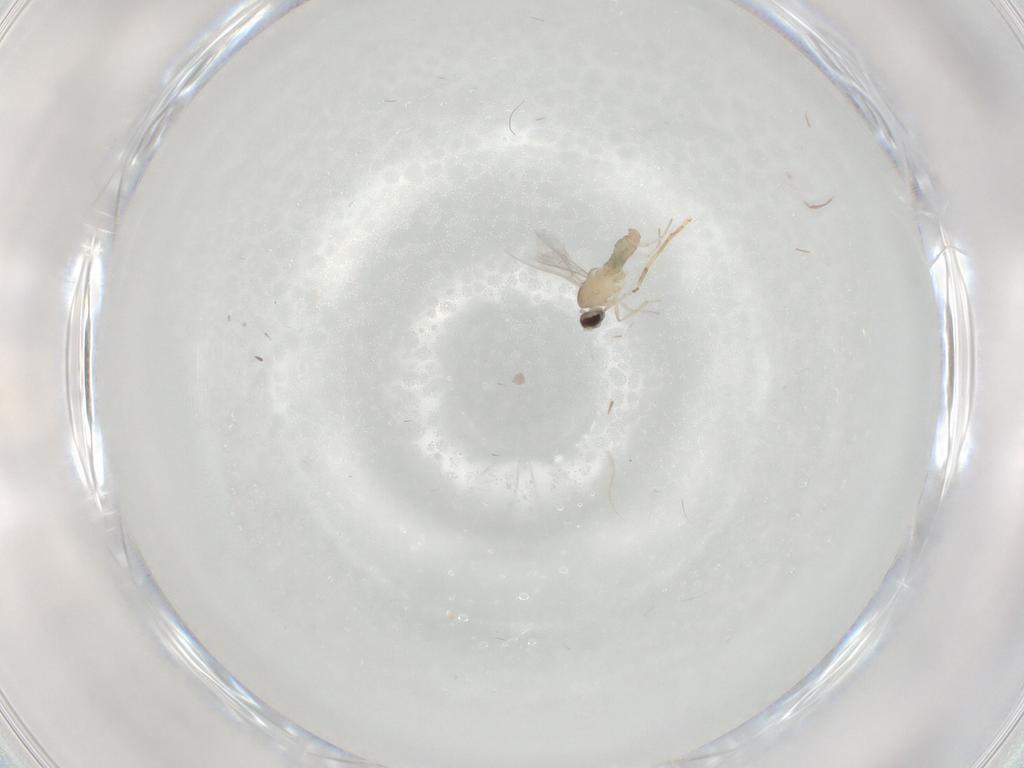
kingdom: Animalia
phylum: Arthropoda
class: Insecta
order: Diptera
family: Cecidomyiidae
